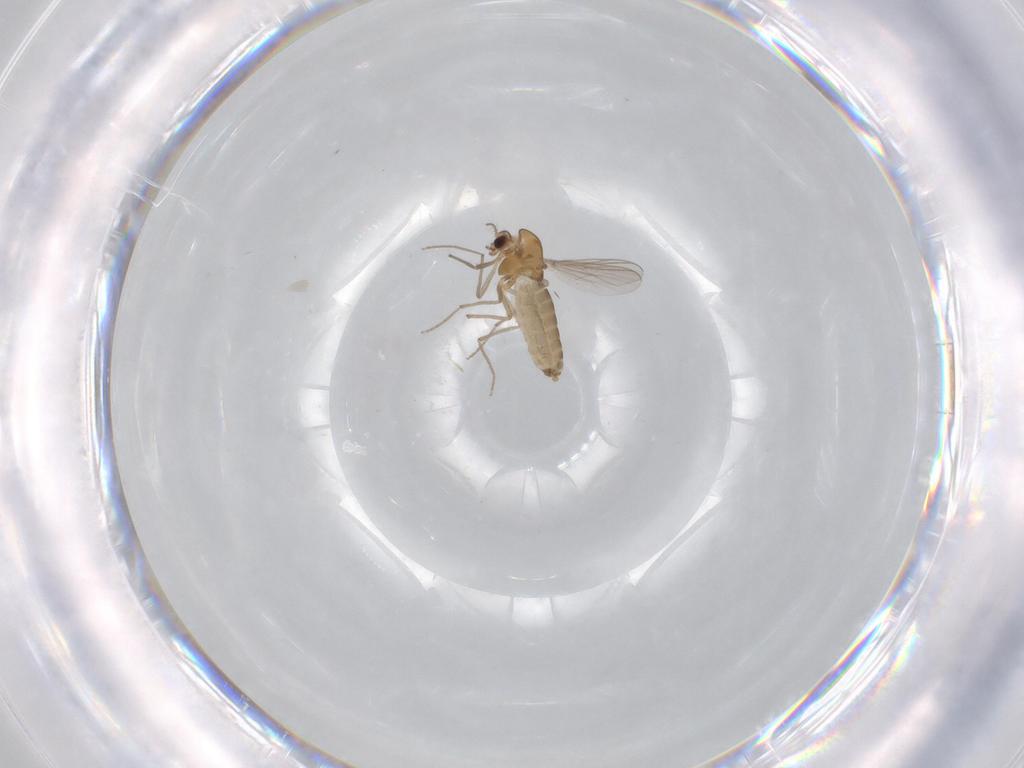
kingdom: Animalia
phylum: Arthropoda
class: Insecta
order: Diptera
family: Chironomidae
